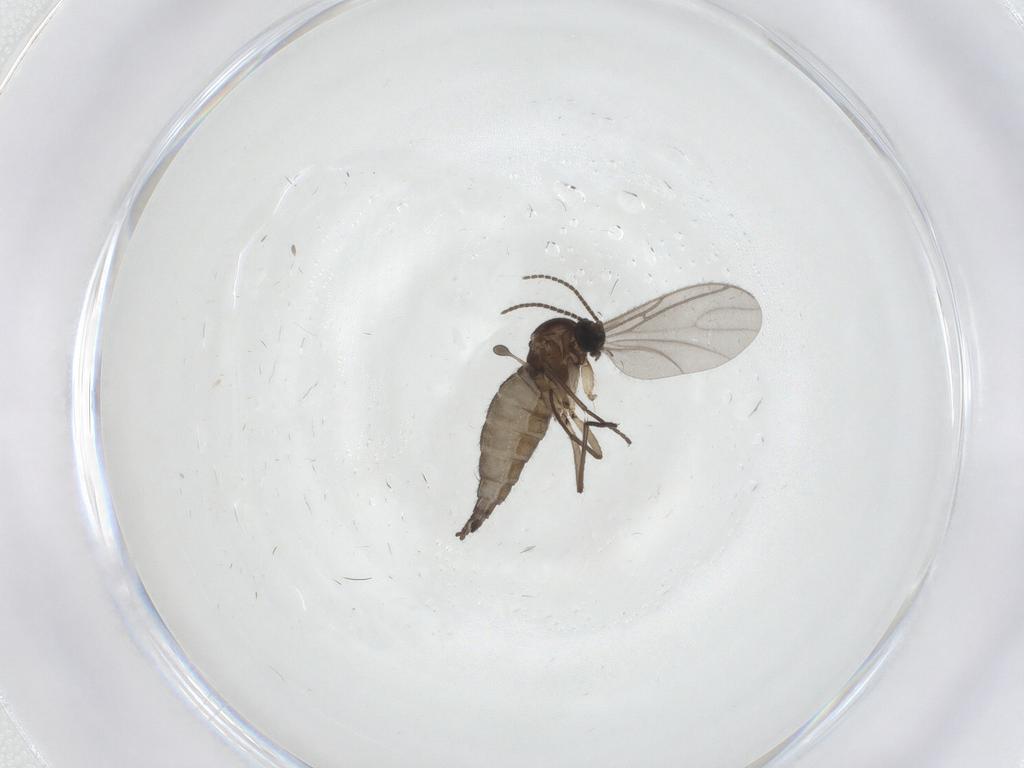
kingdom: Animalia
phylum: Arthropoda
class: Insecta
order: Diptera
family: Sciaridae
